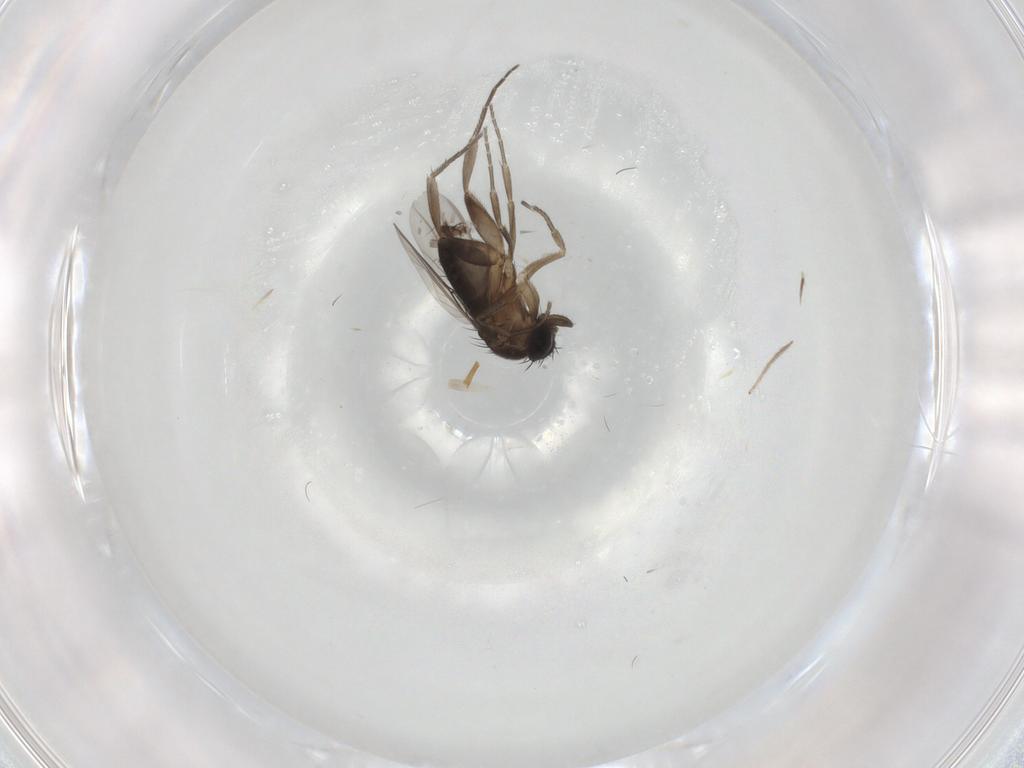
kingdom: Animalia
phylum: Arthropoda
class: Insecta
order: Diptera
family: Phoridae
